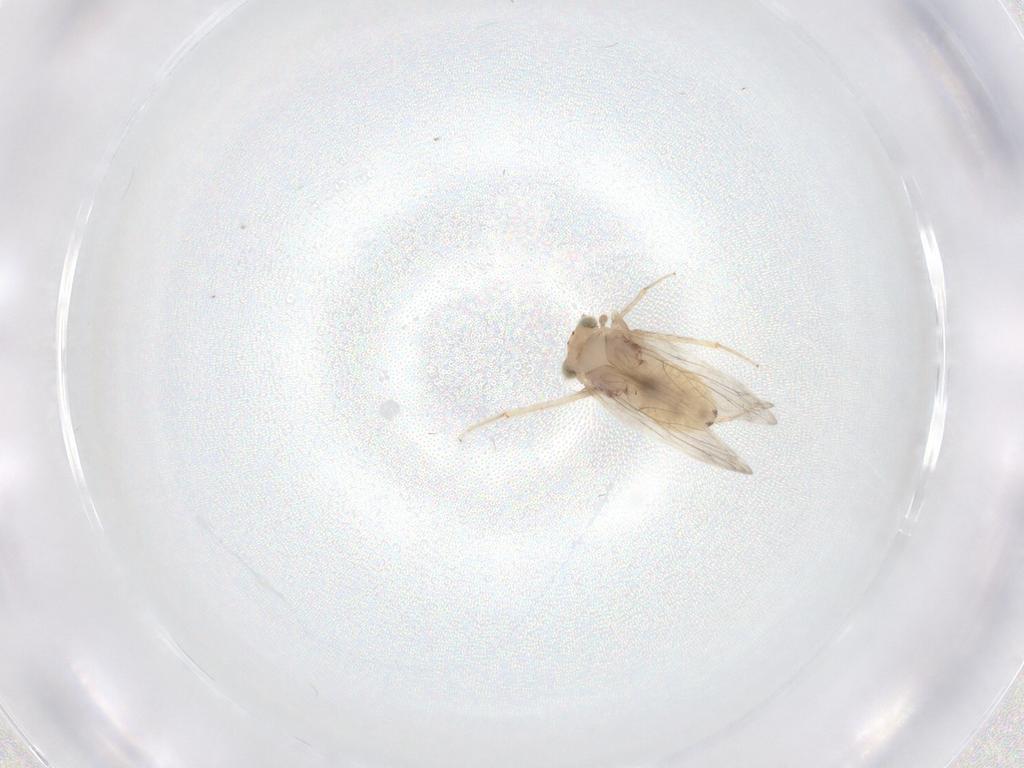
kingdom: Animalia
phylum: Arthropoda
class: Insecta
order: Psocodea
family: Lepidopsocidae
